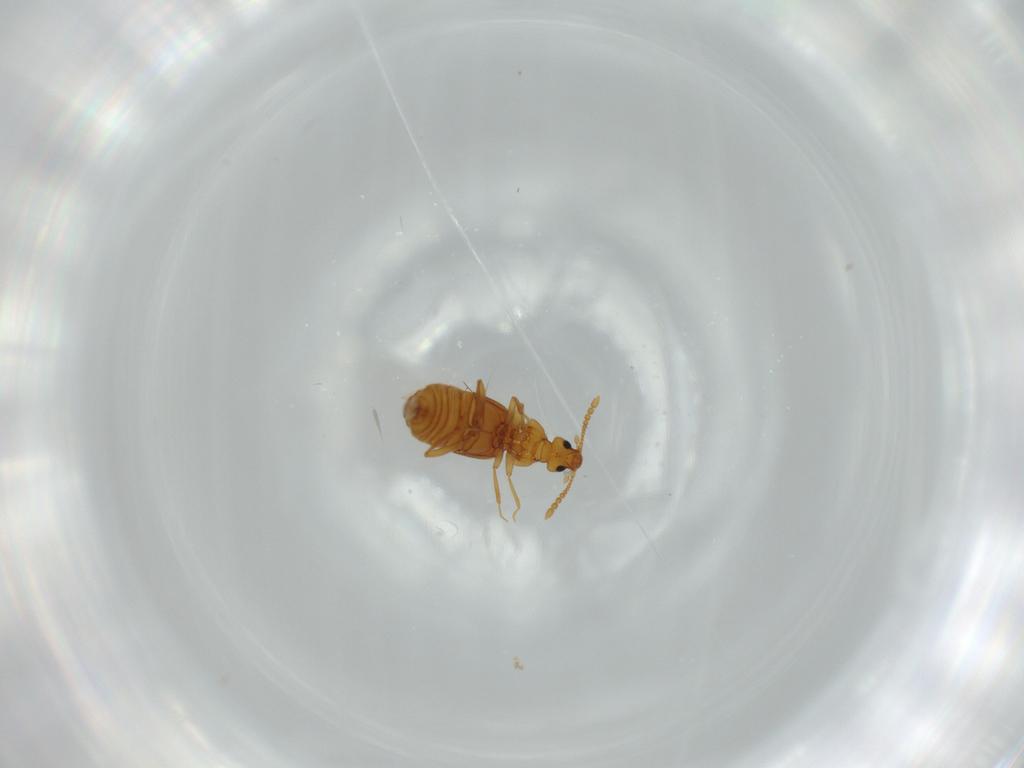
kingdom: Animalia
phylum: Arthropoda
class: Insecta
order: Coleoptera
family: Staphylinidae
